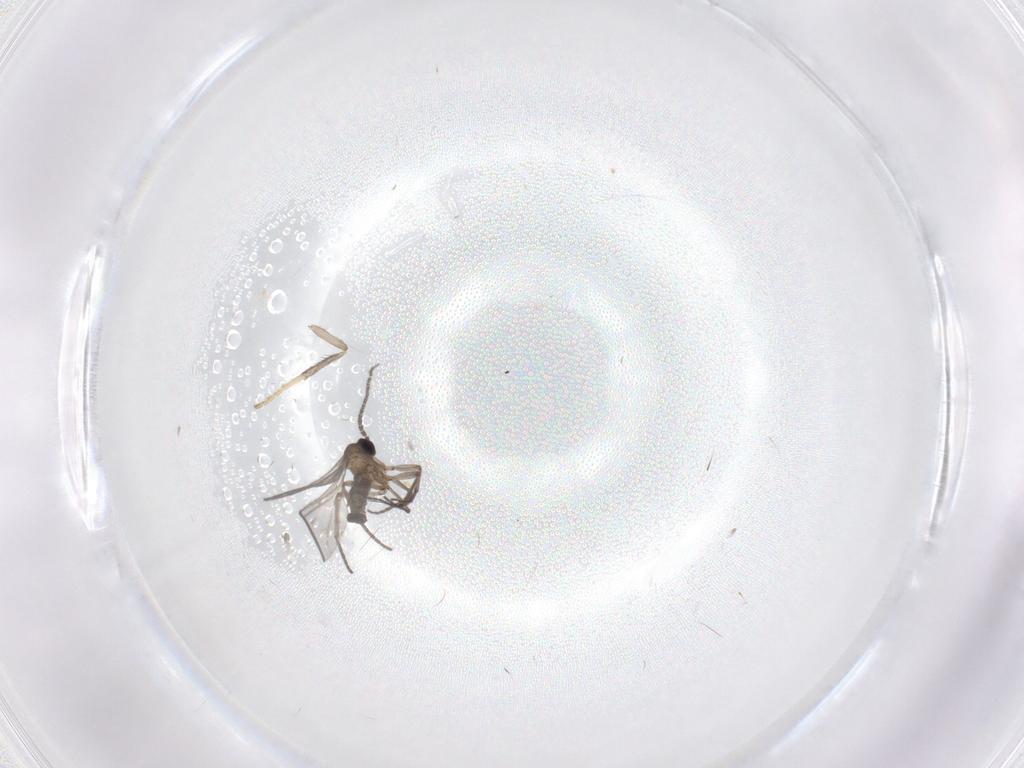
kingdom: Animalia
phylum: Arthropoda
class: Insecta
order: Diptera
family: Sciaridae
